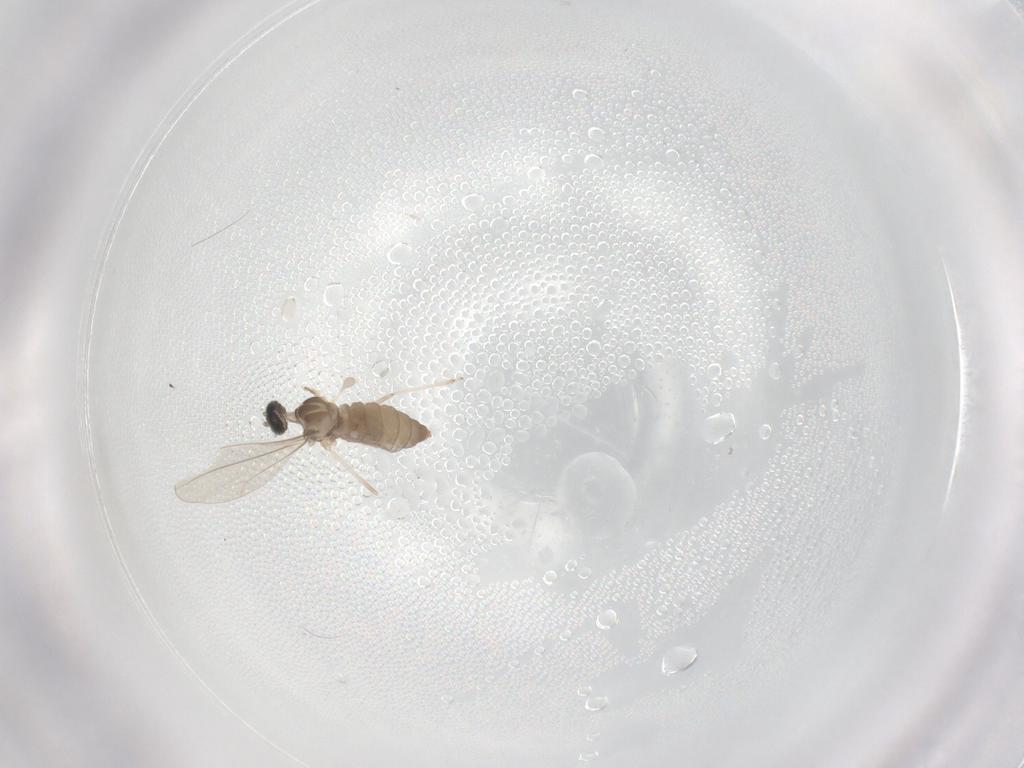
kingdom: Animalia
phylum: Arthropoda
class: Insecta
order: Diptera
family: Cecidomyiidae
